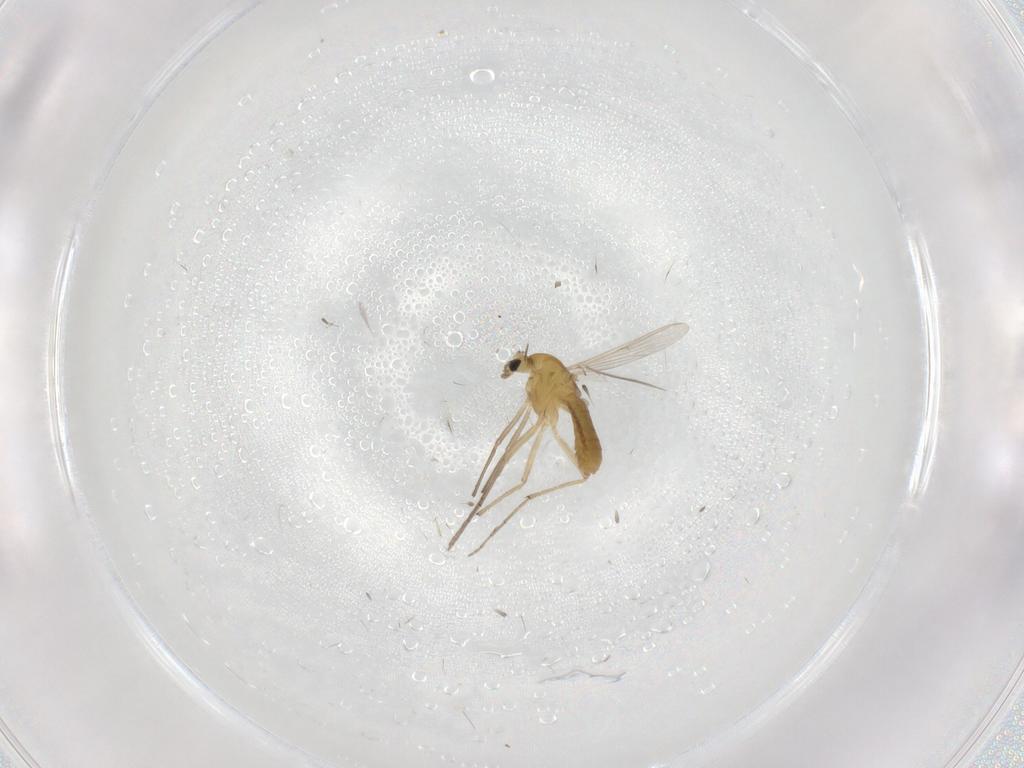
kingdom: Animalia
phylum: Arthropoda
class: Insecta
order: Diptera
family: Chironomidae
